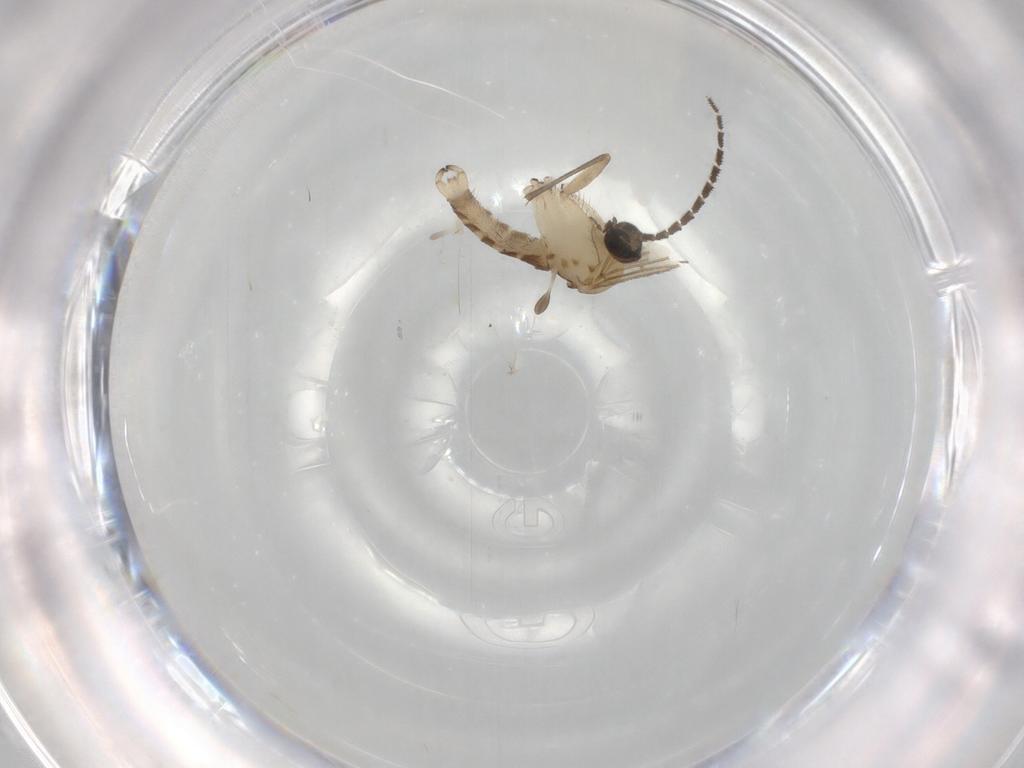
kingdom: Animalia
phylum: Arthropoda
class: Insecta
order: Diptera
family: Sciaridae
